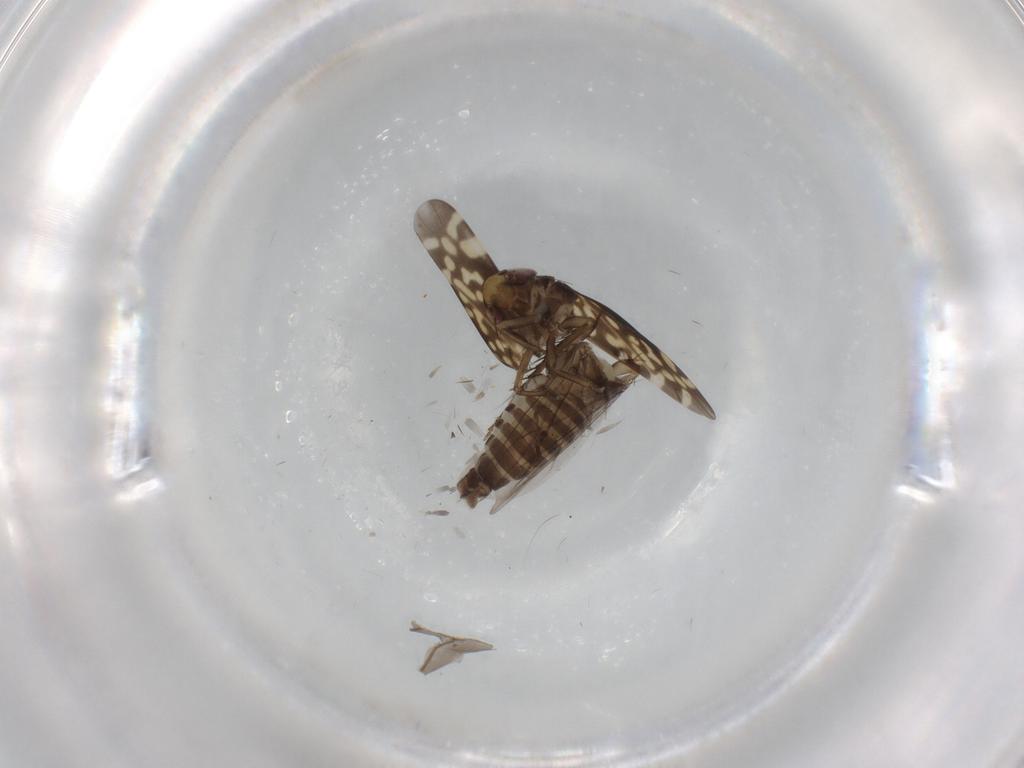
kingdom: Animalia
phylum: Arthropoda
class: Insecta
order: Hemiptera
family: Cicadellidae
